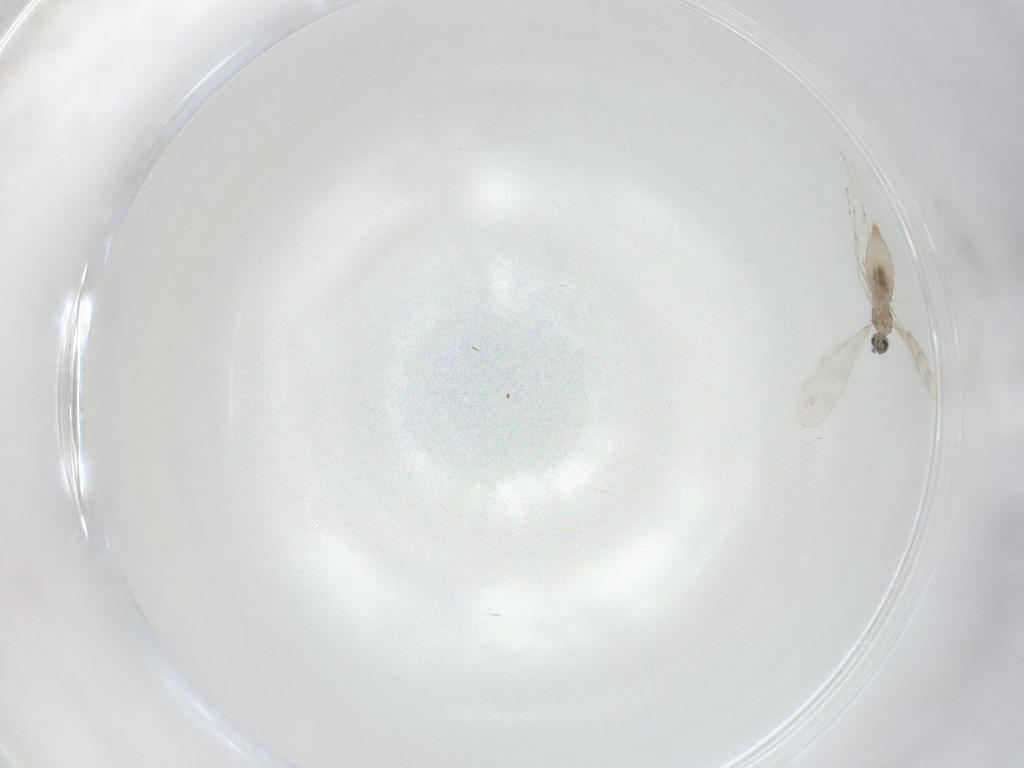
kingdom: Animalia
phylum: Arthropoda
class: Insecta
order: Diptera
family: Cecidomyiidae
